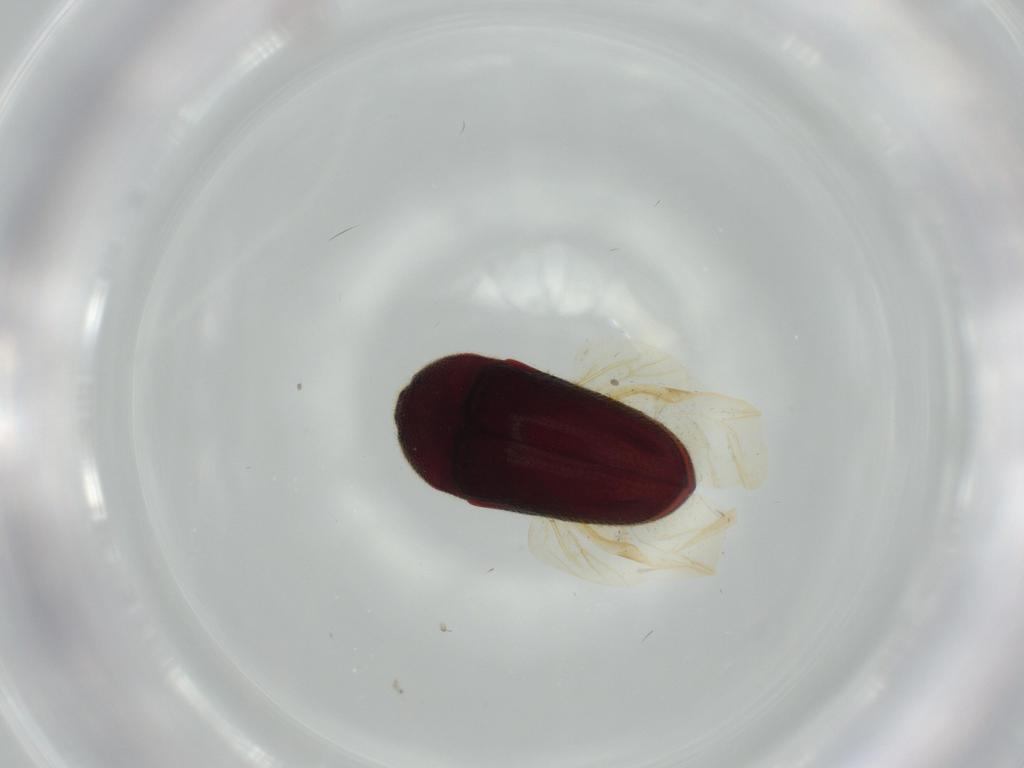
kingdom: Animalia
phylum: Arthropoda
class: Insecta
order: Coleoptera
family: Throscidae
